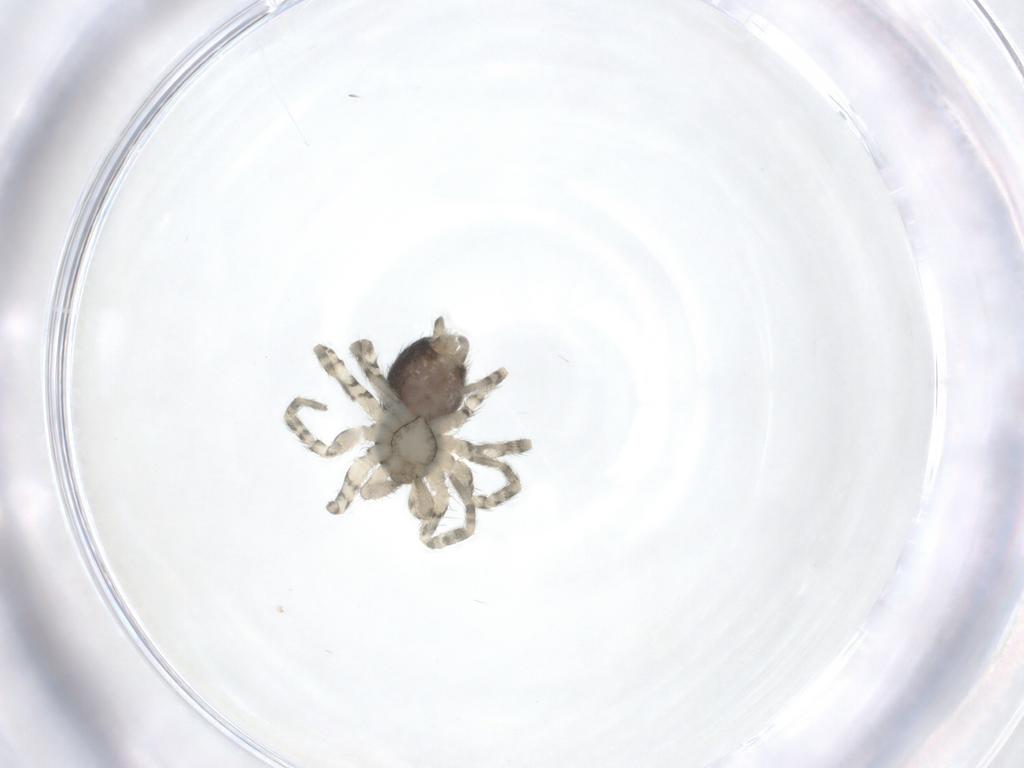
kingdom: Animalia
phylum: Arthropoda
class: Arachnida
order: Araneae
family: Oecobiidae
